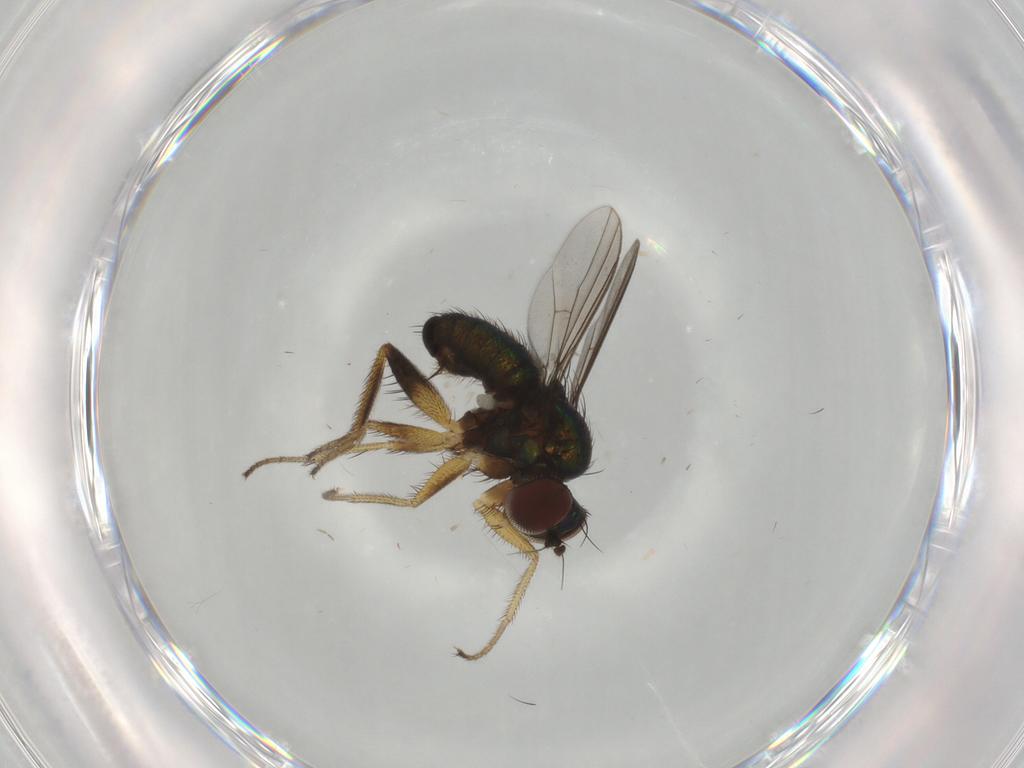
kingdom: Animalia
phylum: Arthropoda
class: Insecta
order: Diptera
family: Dolichopodidae
